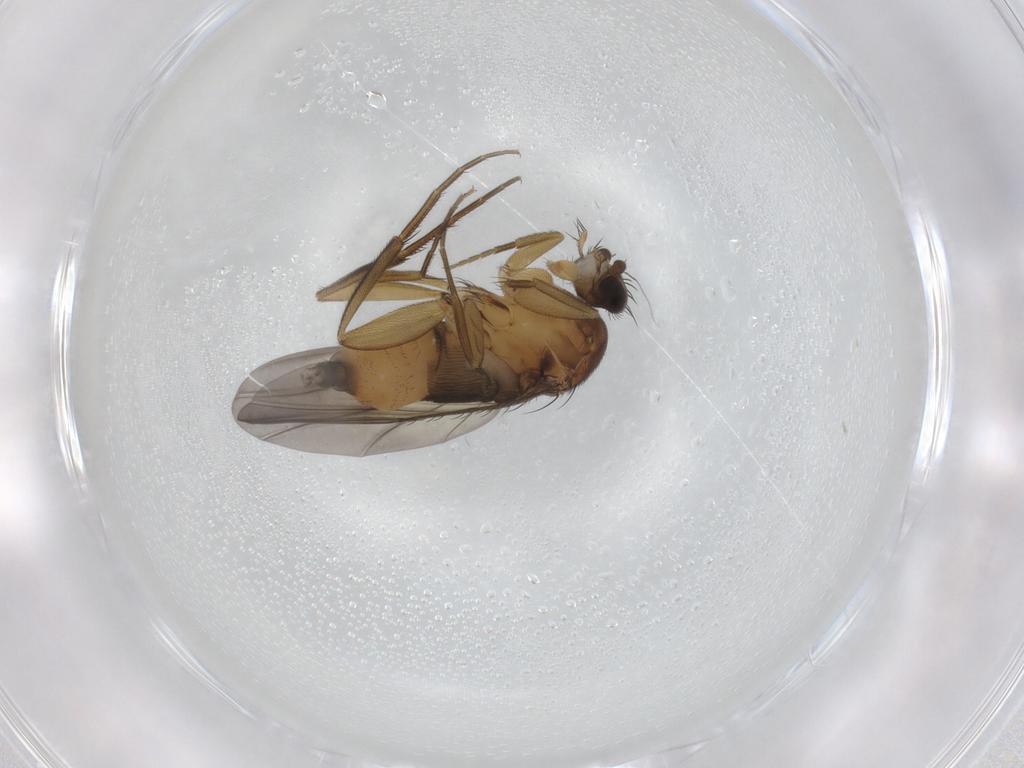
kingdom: Animalia
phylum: Arthropoda
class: Insecta
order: Diptera
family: Phoridae
